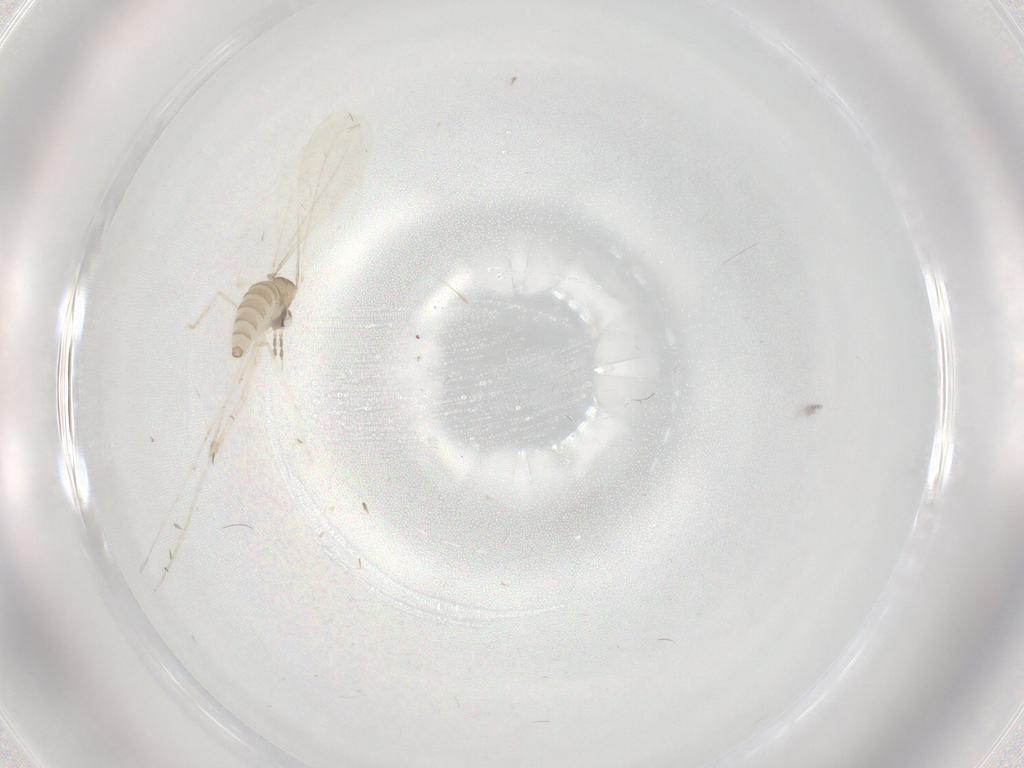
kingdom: Animalia
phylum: Arthropoda
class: Insecta
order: Diptera
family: Cecidomyiidae
